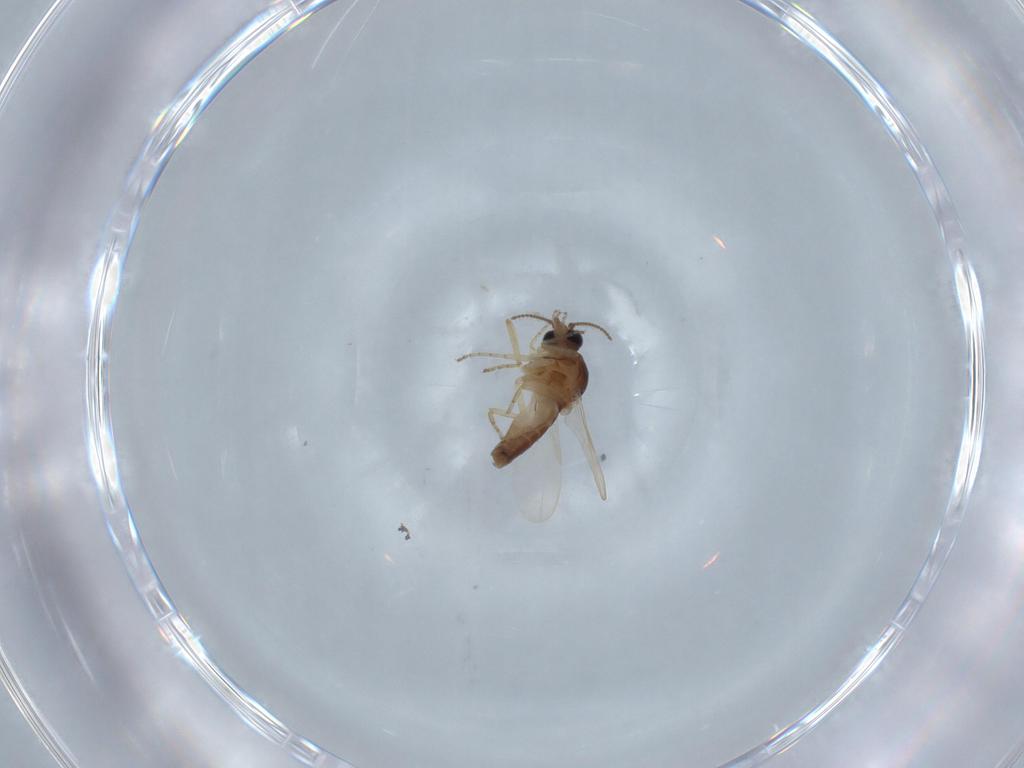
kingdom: Animalia
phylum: Arthropoda
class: Insecta
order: Diptera
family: Ceratopogonidae
